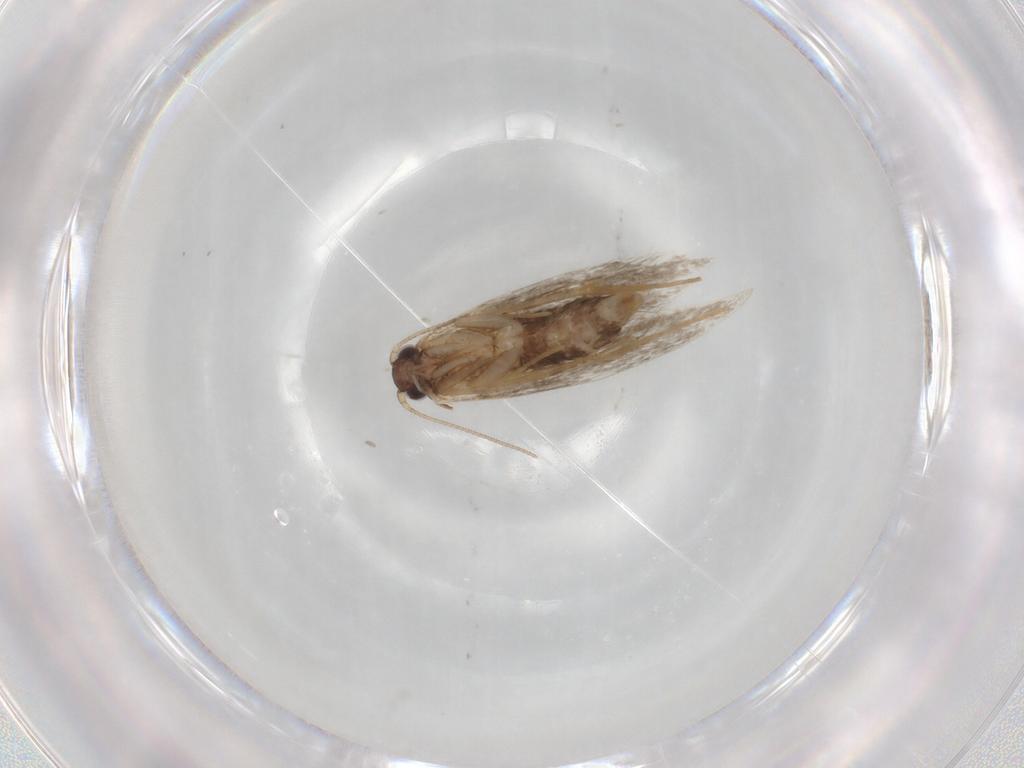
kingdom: Animalia
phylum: Arthropoda
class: Insecta
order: Lepidoptera
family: Tineidae
